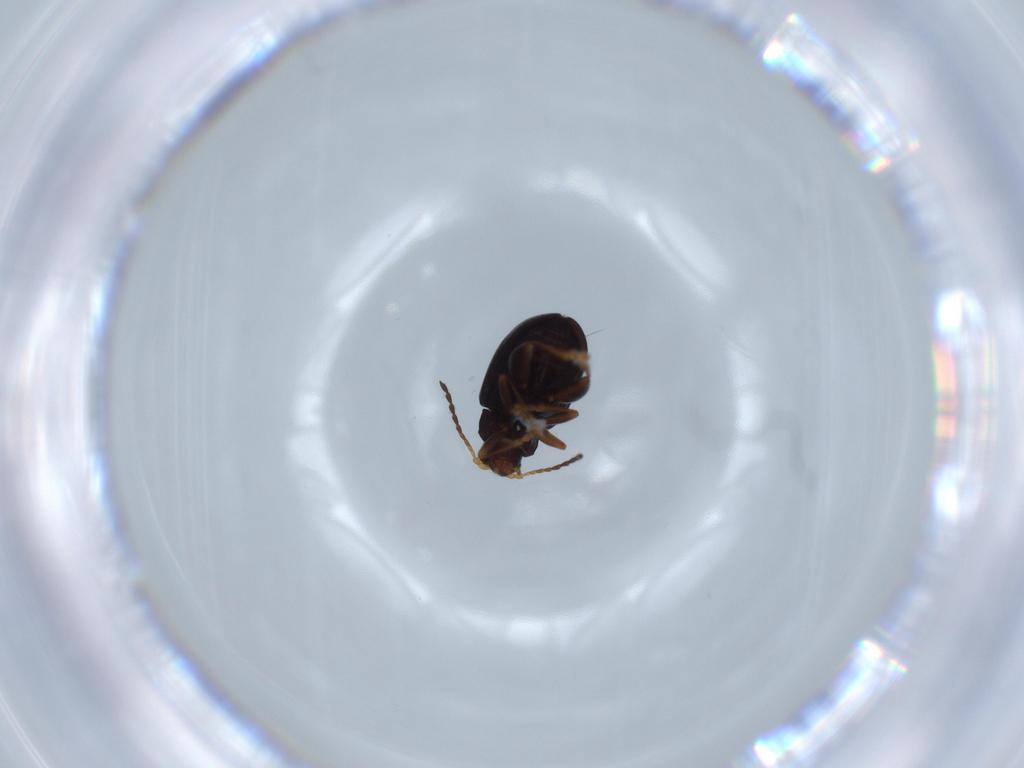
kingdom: Animalia
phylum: Arthropoda
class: Insecta
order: Coleoptera
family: Chrysomelidae
